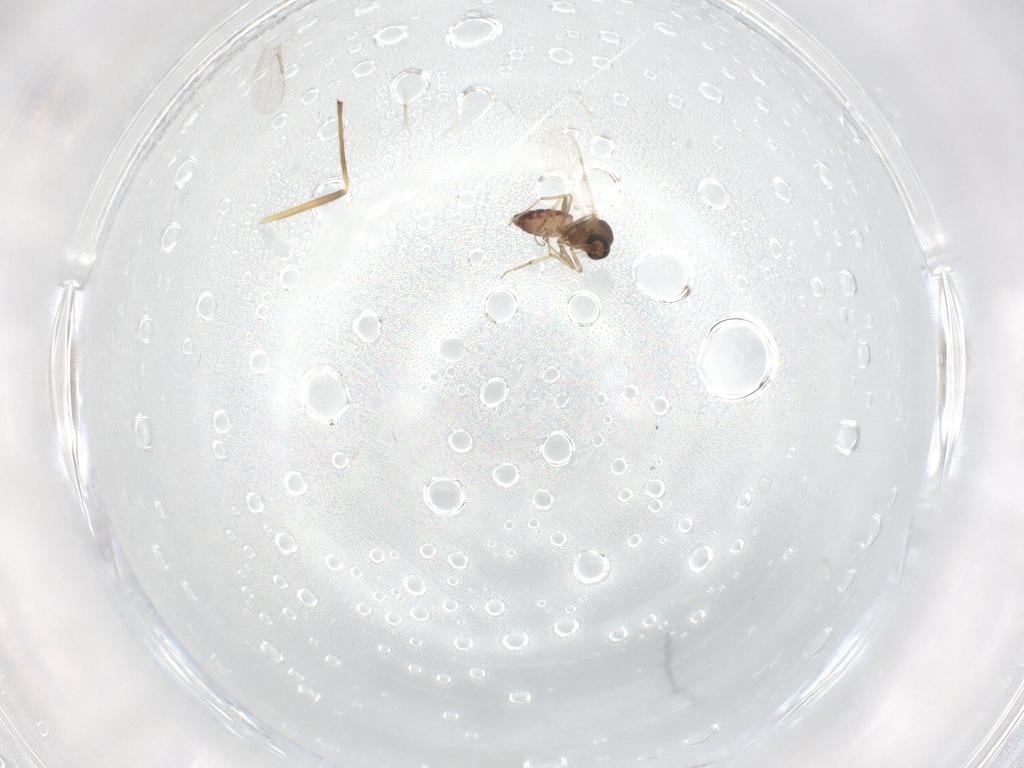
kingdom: Animalia
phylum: Arthropoda
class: Insecta
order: Diptera
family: Ceratopogonidae
